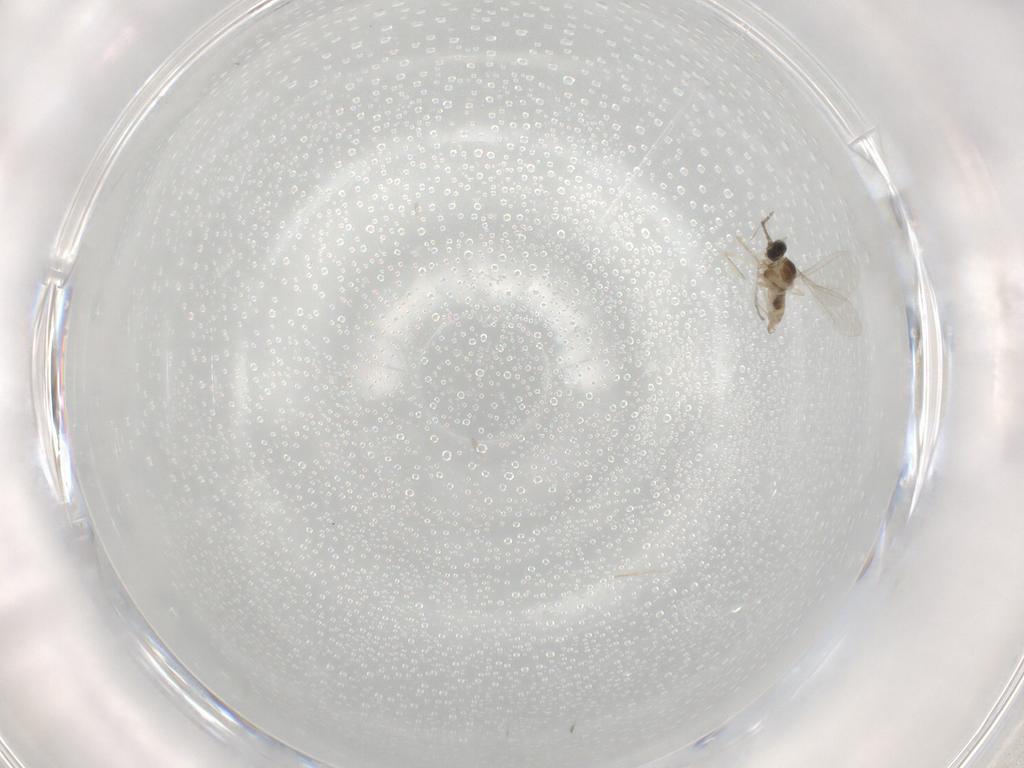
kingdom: Animalia
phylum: Arthropoda
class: Insecta
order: Diptera
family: Cecidomyiidae
